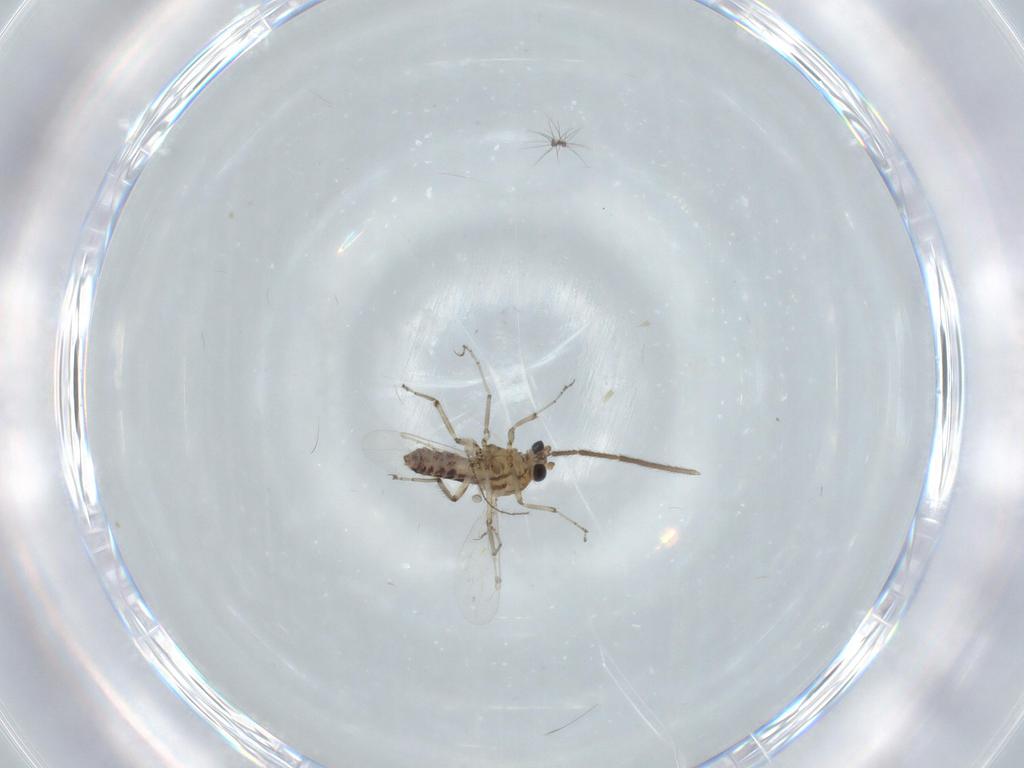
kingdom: Animalia
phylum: Arthropoda
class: Insecta
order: Diptera
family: Ceratopogonidae
